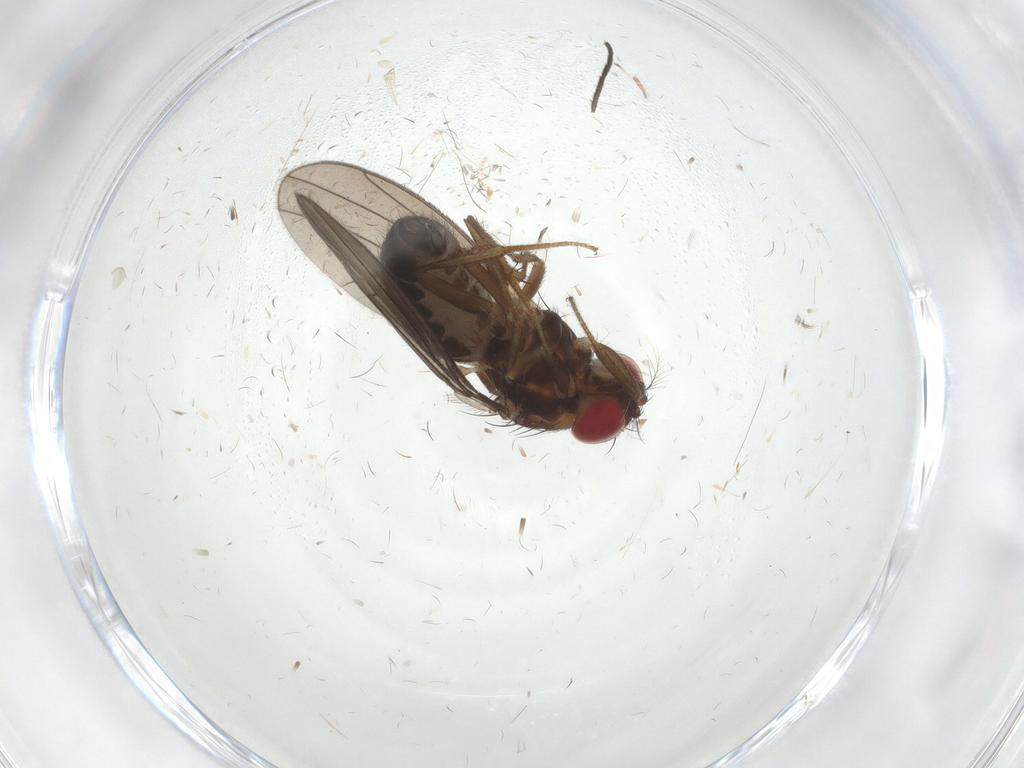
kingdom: Animalia
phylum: Arthropoda
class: Insecta
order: Diptera
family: Drosophilidae
